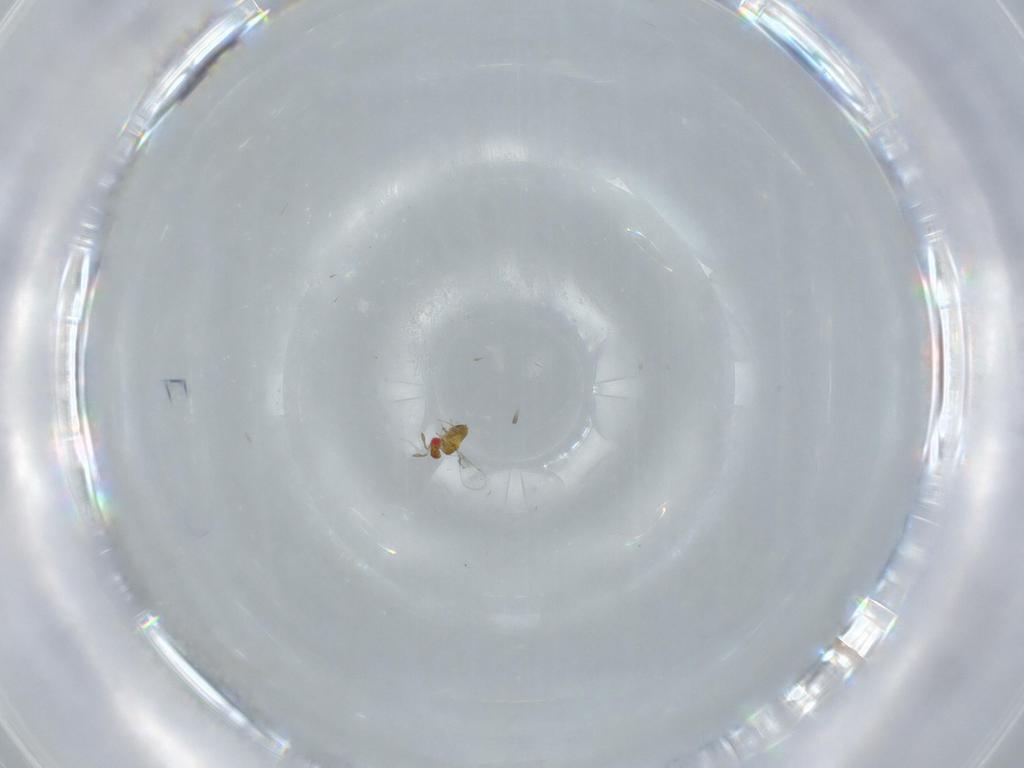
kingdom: Animalia
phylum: Arthropoda
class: Insecta
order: Hymenoptera
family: Trichogrammatidae
